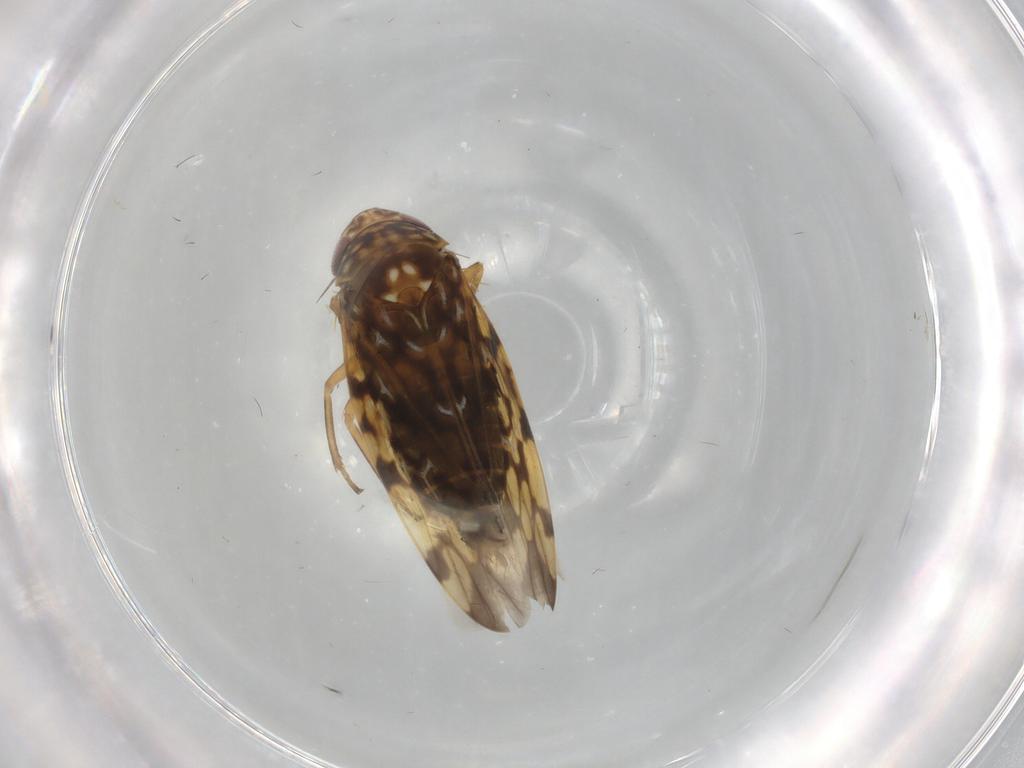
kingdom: Animalia
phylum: Arthropoda
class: Insecta
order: Hemiptera
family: Cicadellidae
